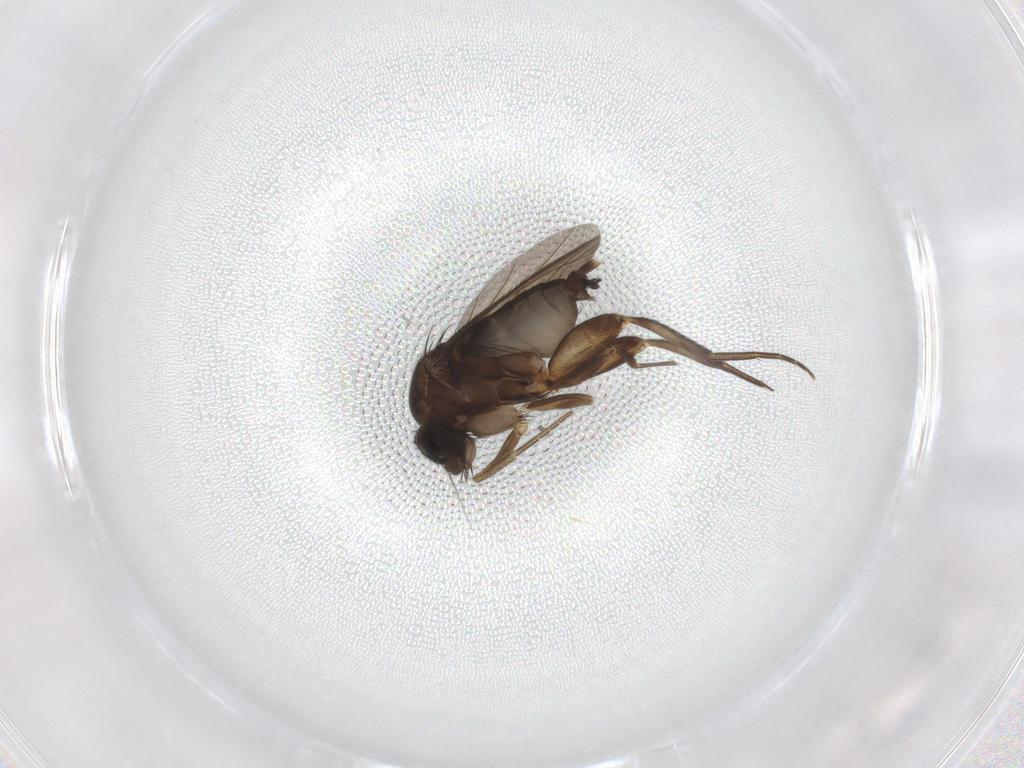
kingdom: Animalia
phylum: Arthropoda
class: Insecta
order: Diptera
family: Phoridae
